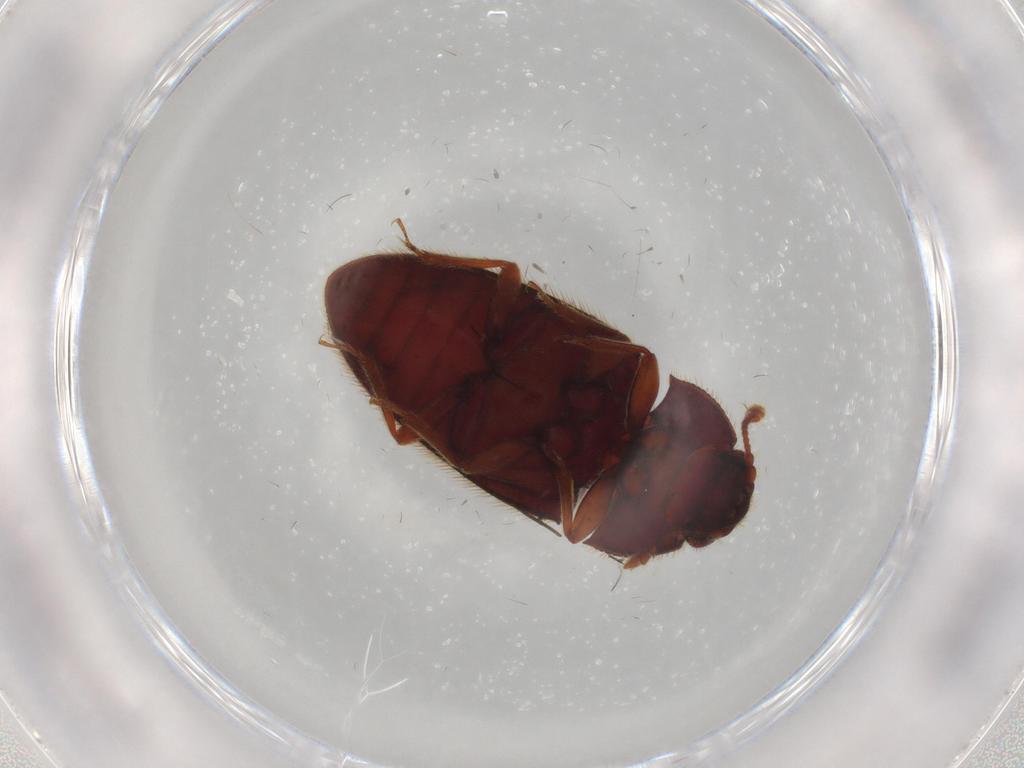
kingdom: Animalia
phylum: Arthropoda
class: Insecta
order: Coleoptera
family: Biphyllidae
